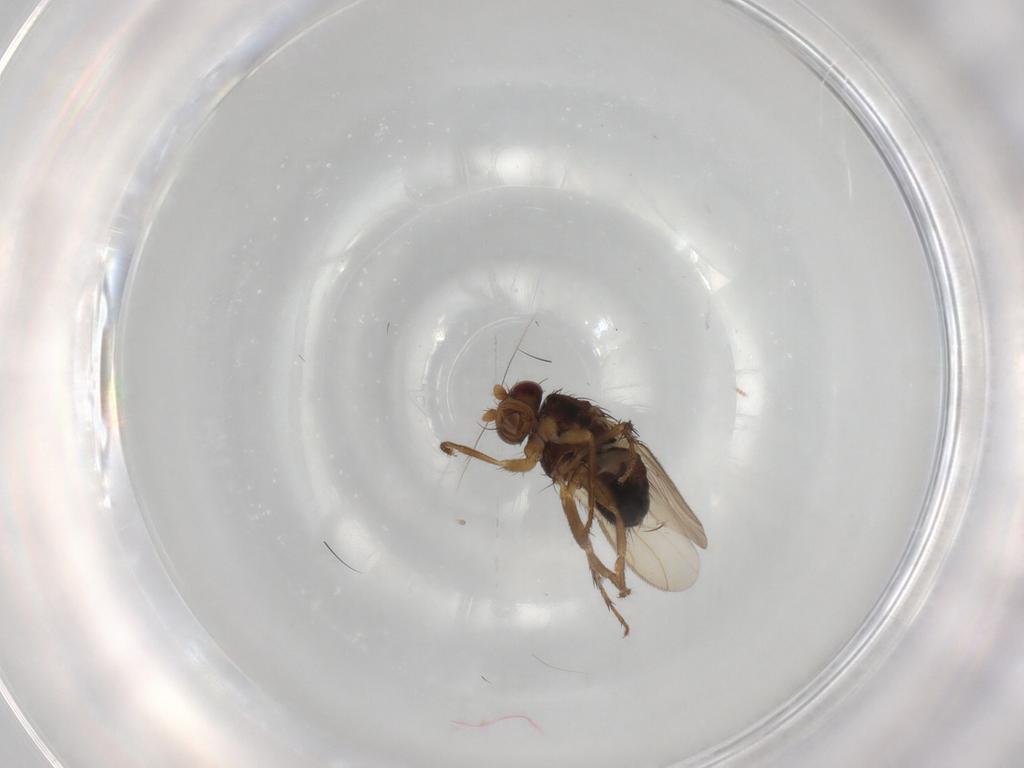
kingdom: Animalia
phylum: Arthropoda
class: Insecta
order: Diptera
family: Sphaeroceridae
